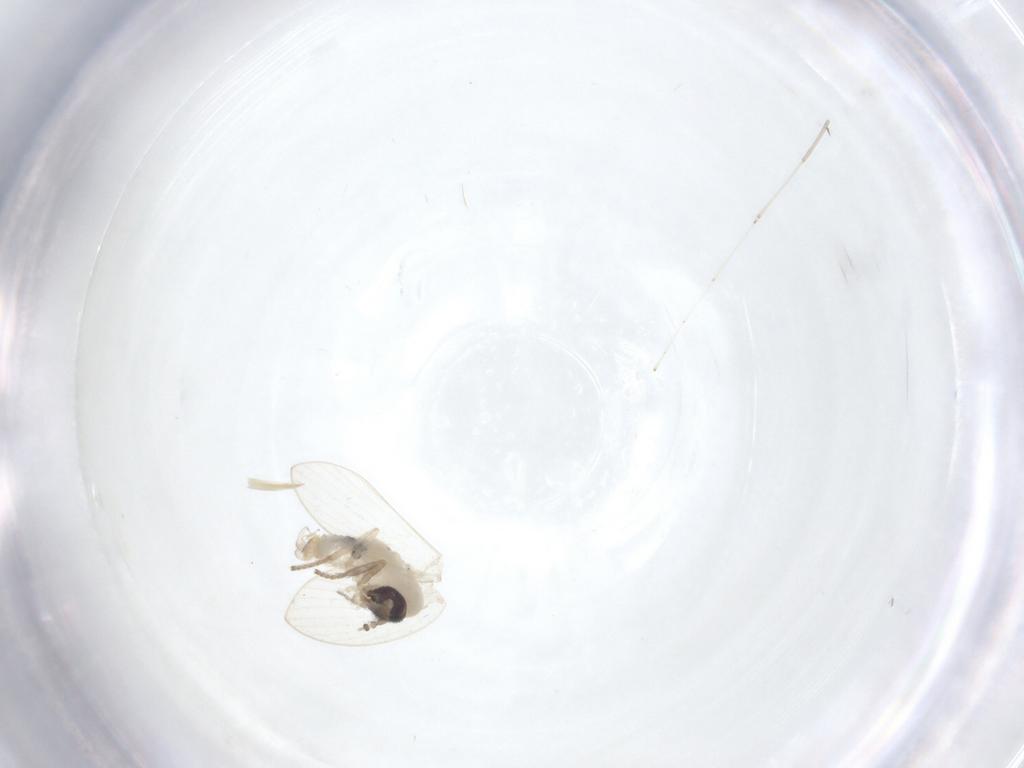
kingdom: Animalia
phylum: Arthropoda
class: Insecta
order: Diptera
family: Psychodidae
